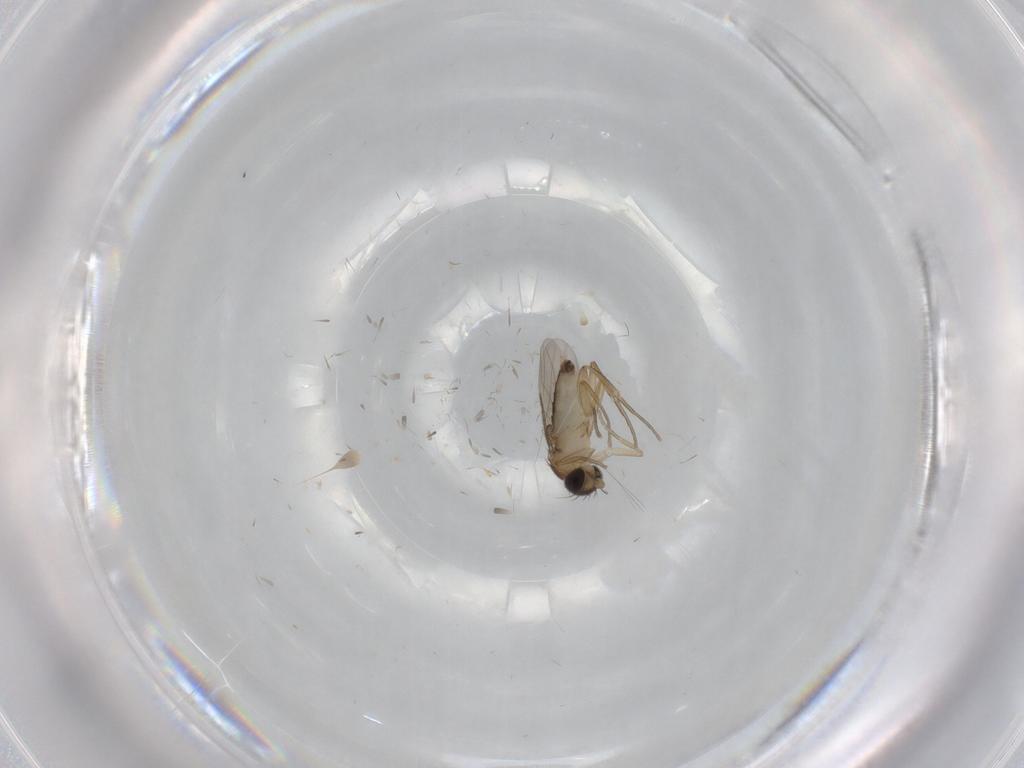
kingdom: Animalia
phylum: Arthropoda
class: Insecta
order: Diptera
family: Phoridae
